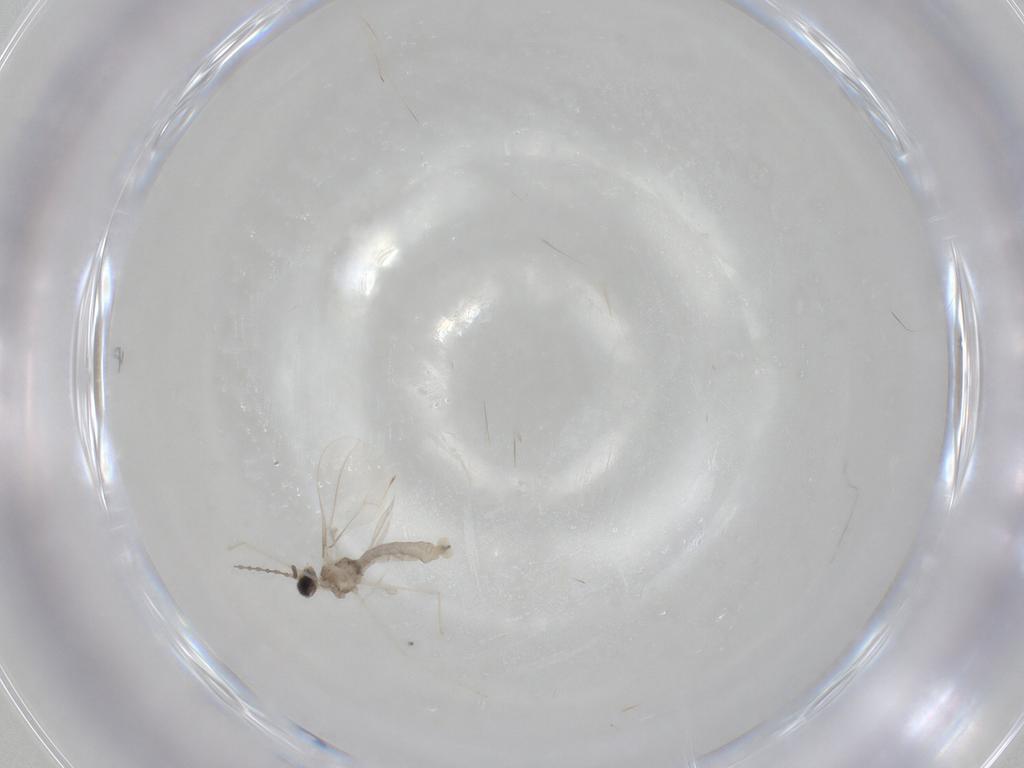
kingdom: Animalia
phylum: Arthropoda
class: Insecta
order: Diptera
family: Cecidomyiidae
